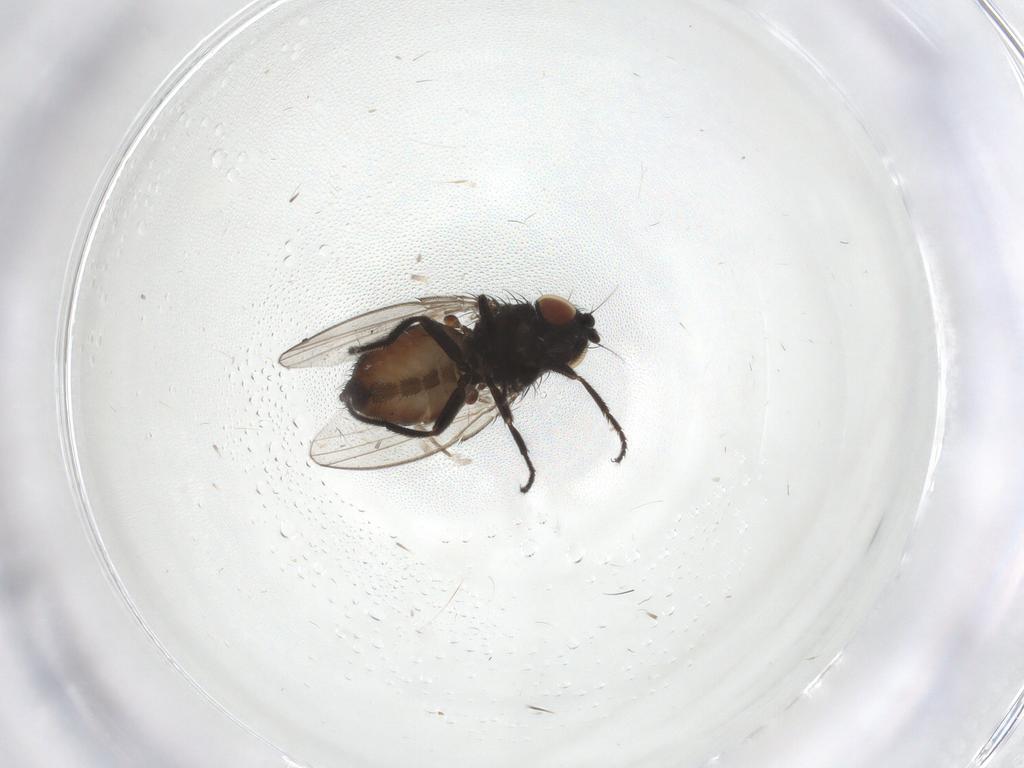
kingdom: Animalia
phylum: Arthropoda
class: Insecta
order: Diptera
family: Milichiidae
